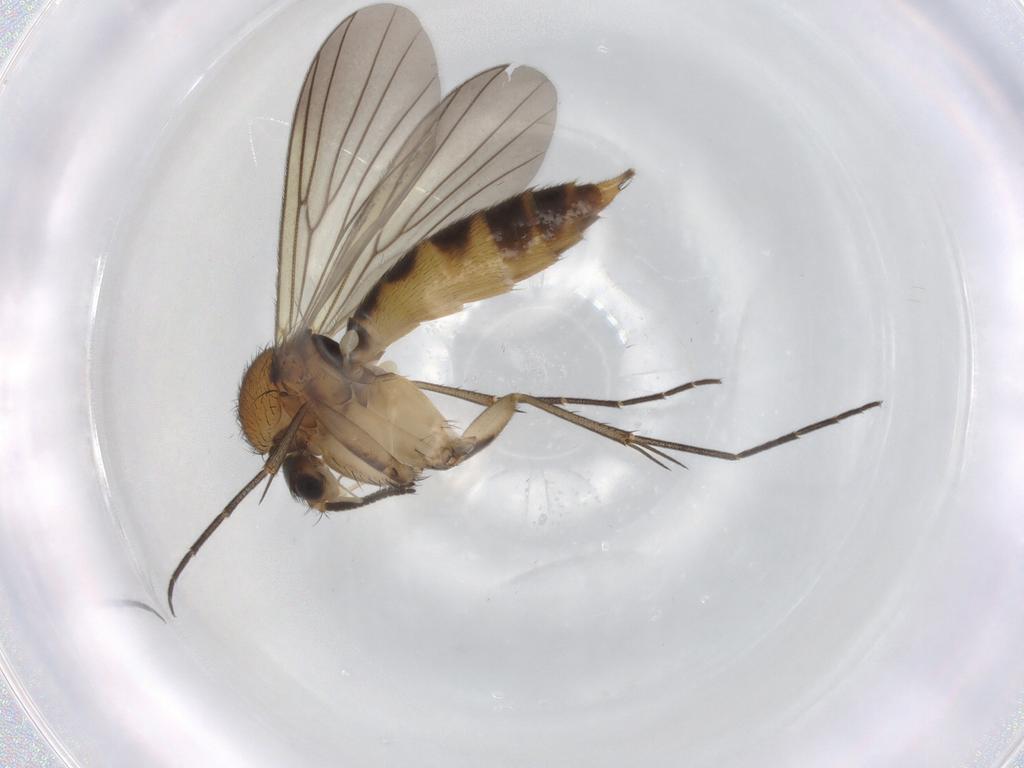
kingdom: Animalia
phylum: Arthropoda
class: Insecta
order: Diptera
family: Mycetophilidae
